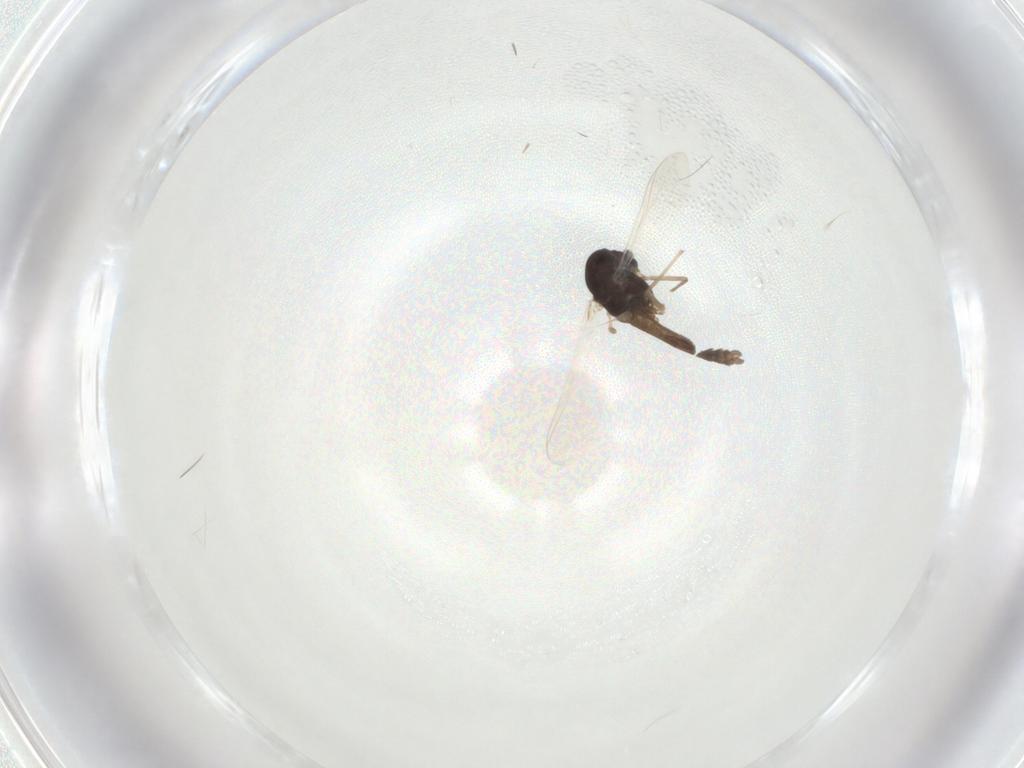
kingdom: Animalia
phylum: Arthropoda
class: Insecta
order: Diptera
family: Chironomidae
